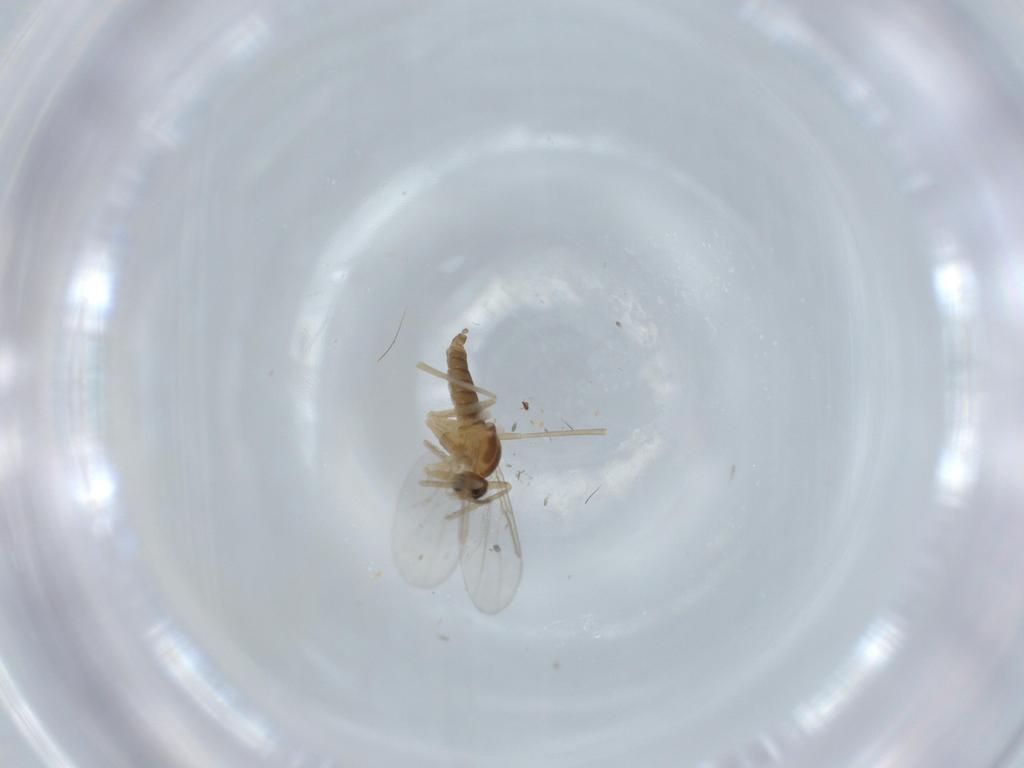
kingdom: Animalia
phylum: Arthropoda
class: Insecta
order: Diptera
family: Cecidomyiidae
